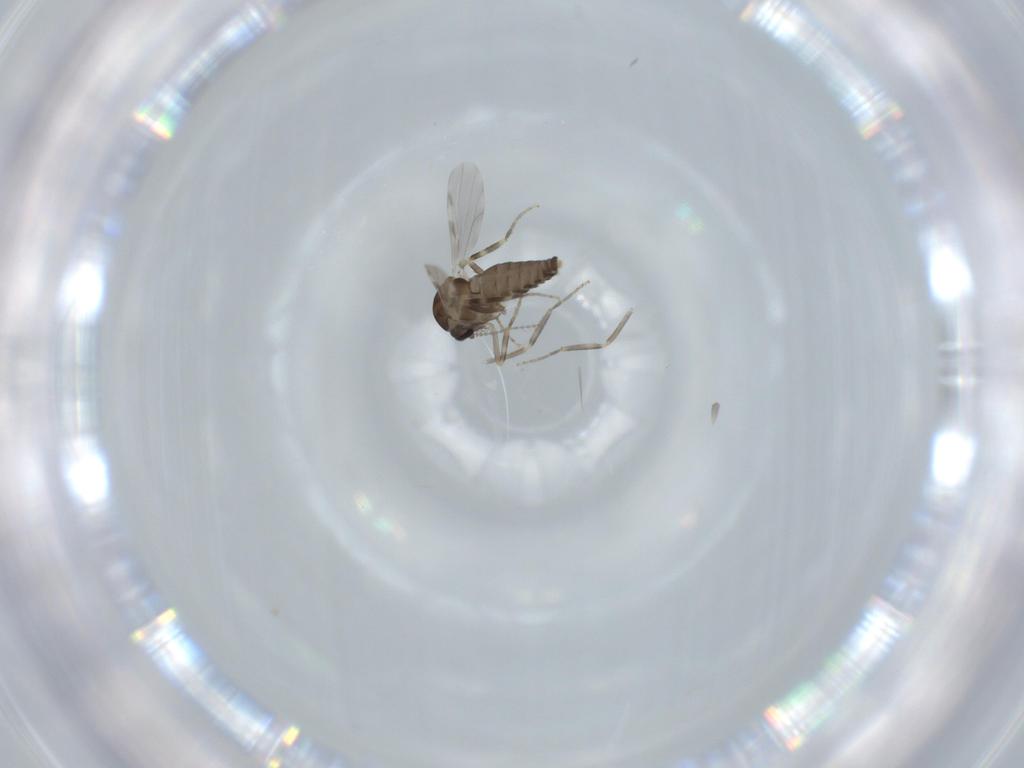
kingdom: Animalia
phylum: Arthropoda
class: Insecta
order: Diptera
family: Ceratopogonidae
